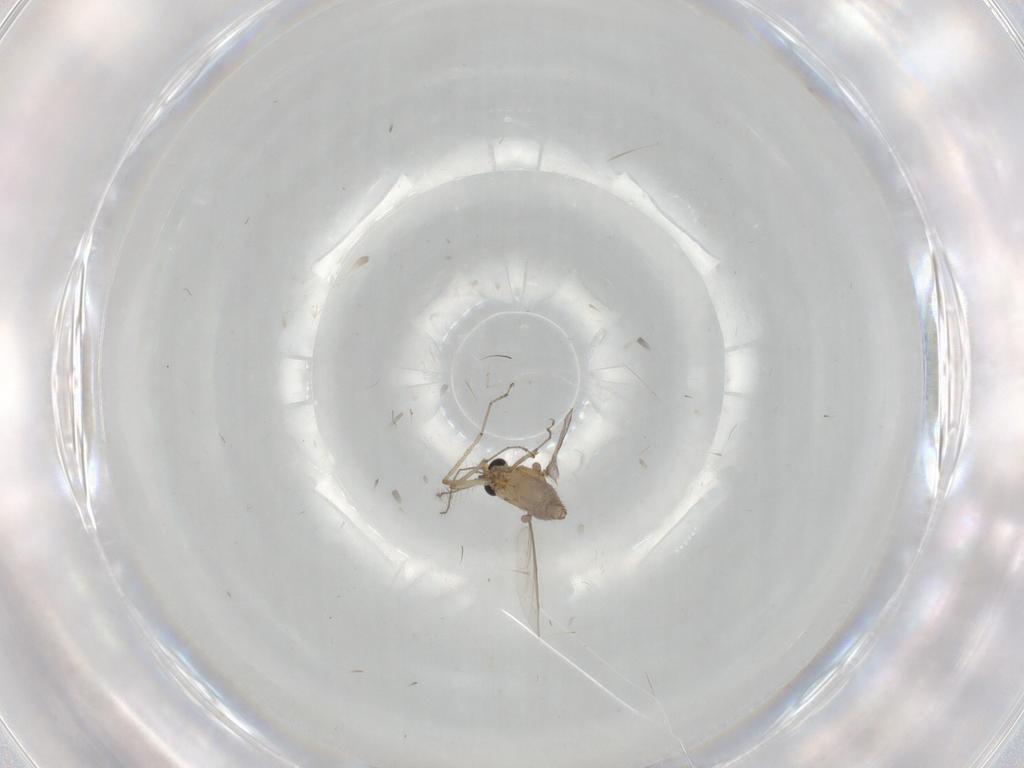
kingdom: Animalia
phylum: Arthropoda
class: Insecta
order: Diptera
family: Ceratopogonidae
